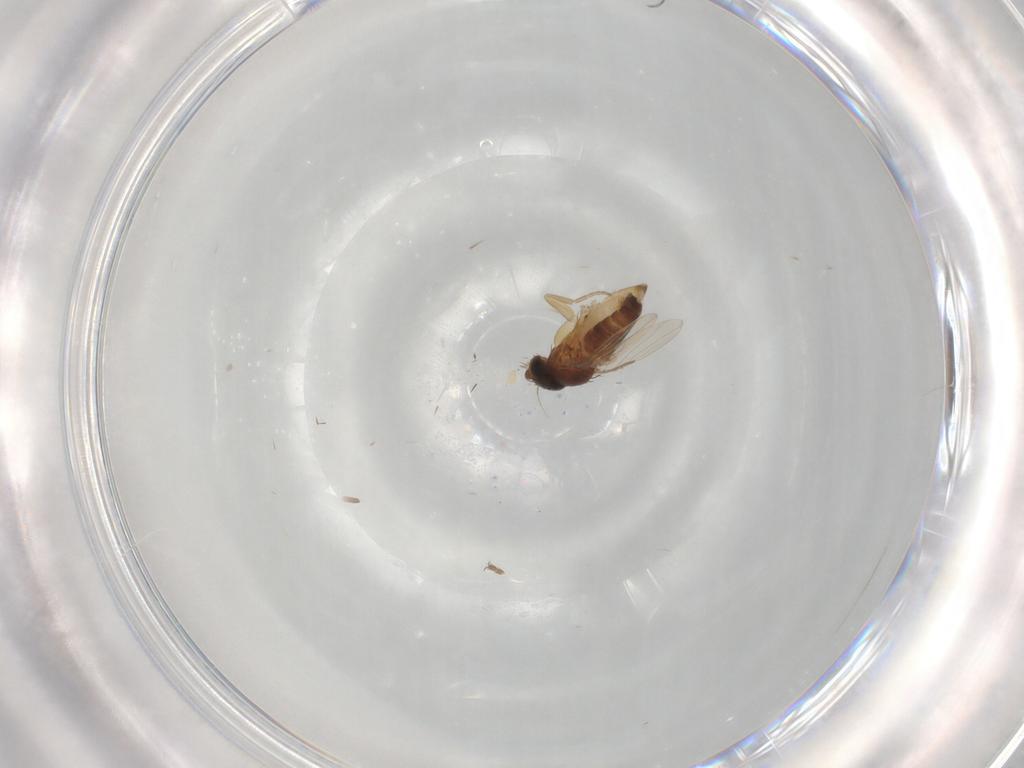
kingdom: Animalia
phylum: Arthropoda
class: Insecta
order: Diptera
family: Phoridae
